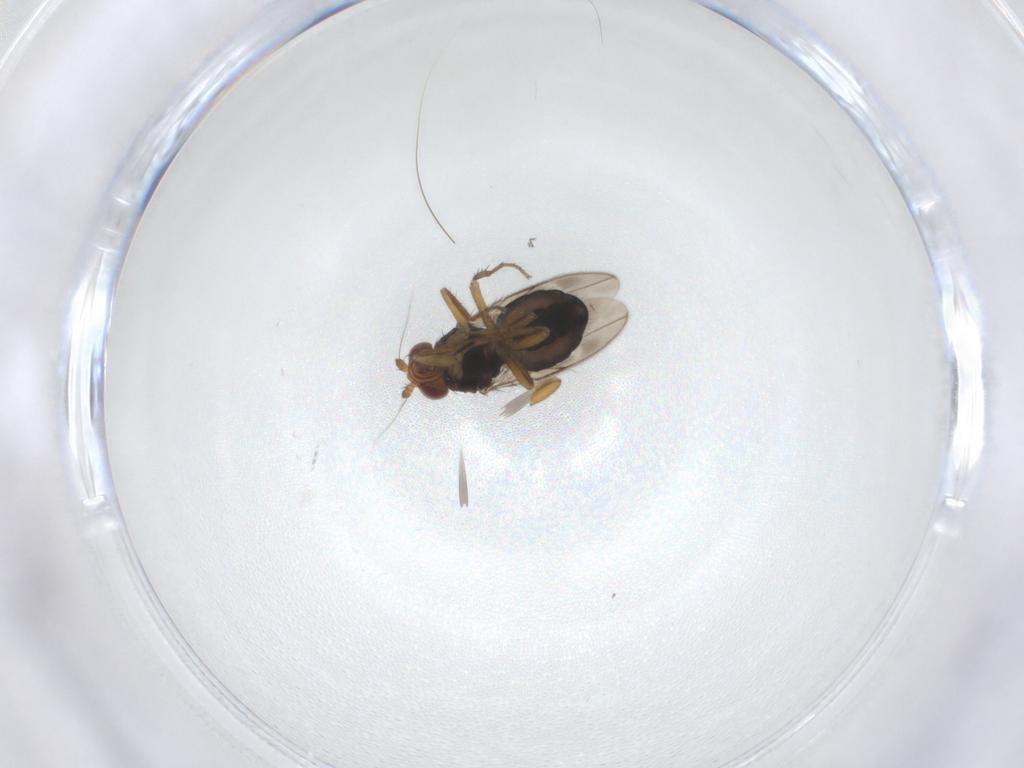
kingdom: Animalia
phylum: Arthropoda
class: Insecta
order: Diptera
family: Sphaeroceridae
